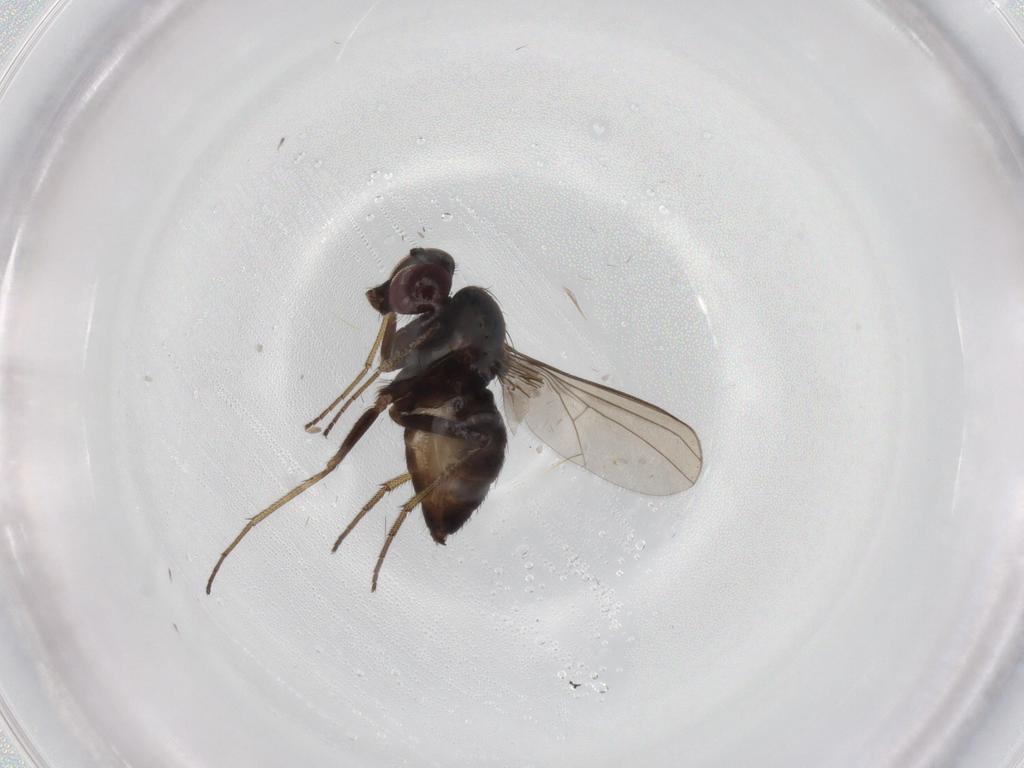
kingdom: Animalia
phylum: Arthropoda
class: Insecta
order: Diptera
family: Dolichopodidae
